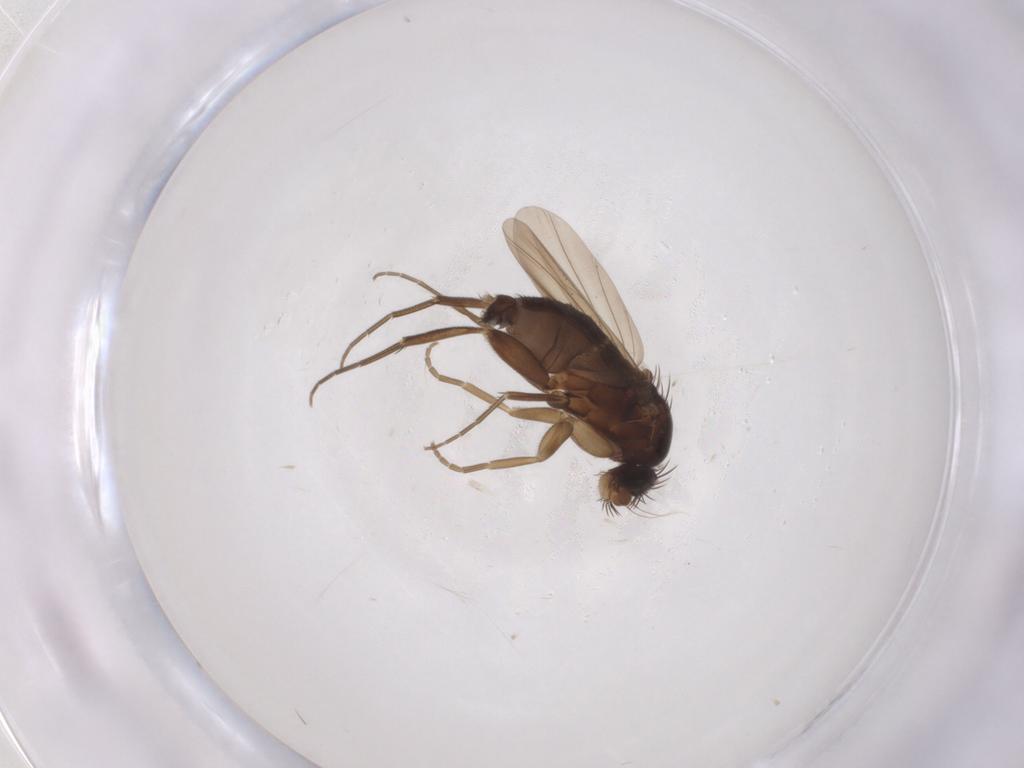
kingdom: Animalia
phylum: Arthropoda
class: Insecta
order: Diptera
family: Phoridae
